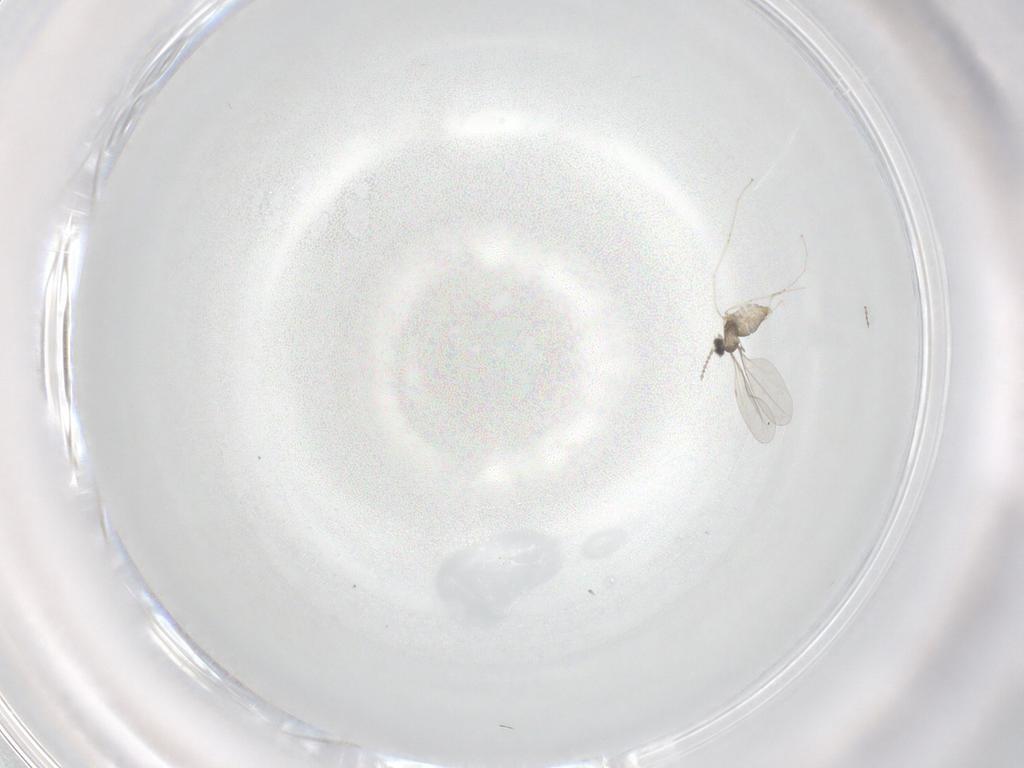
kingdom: Animalia
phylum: Arthropoda
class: Insecta
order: Diptera
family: Cecidomyiidae
